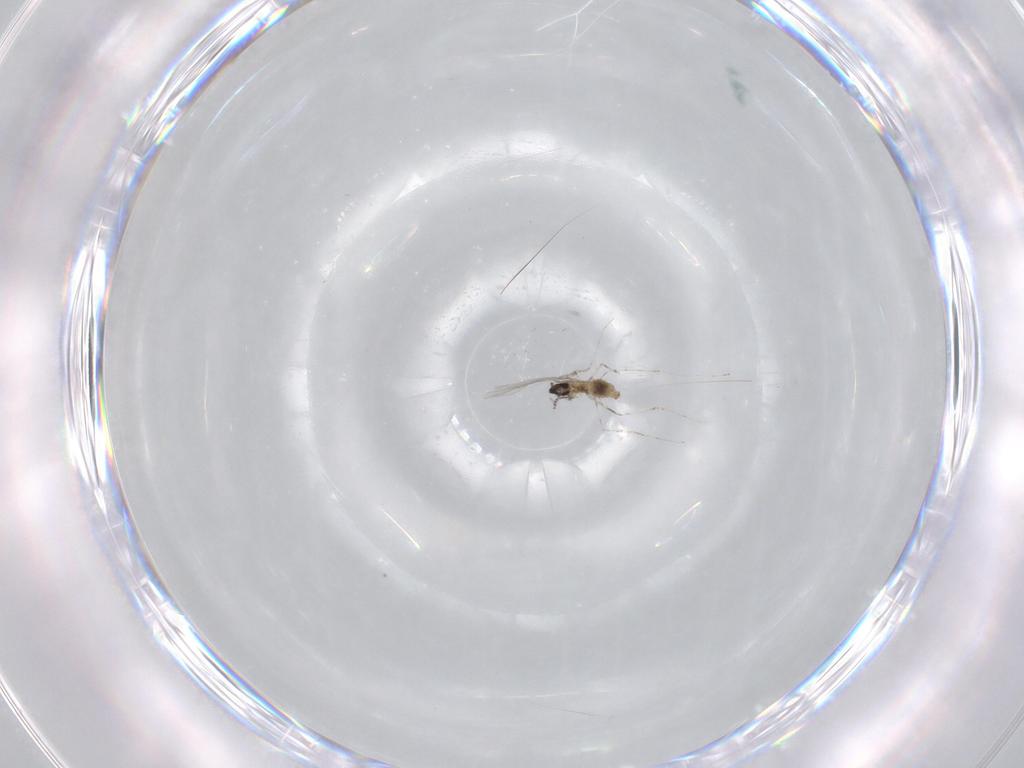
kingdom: Animalia
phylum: Arthropoda
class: Insecta
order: Diptera
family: Cecidomyiidae
